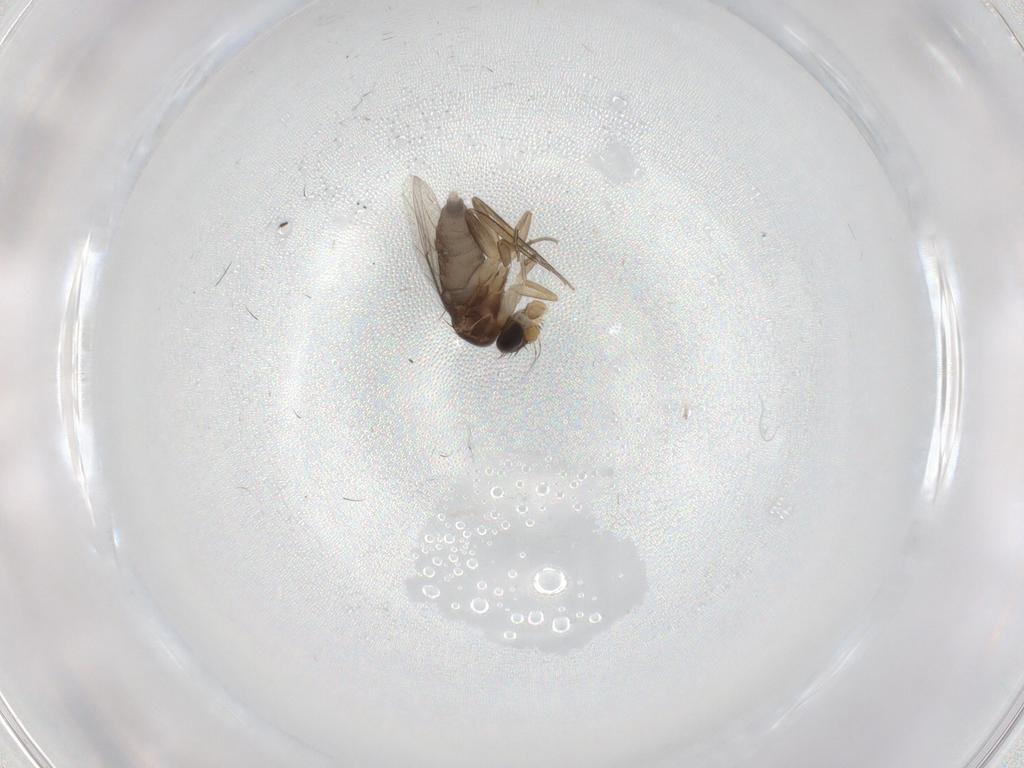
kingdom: Animalia
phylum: Arthropoda
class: Insecta
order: Diptera
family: Phoridae
